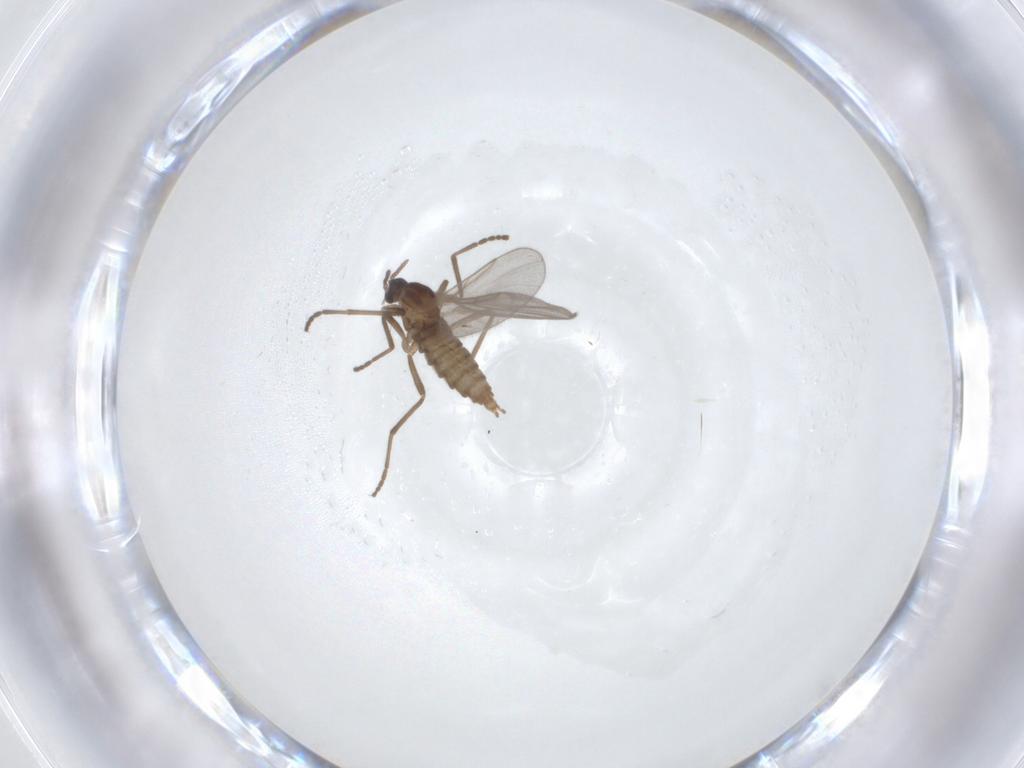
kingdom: Animalia
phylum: Arthropoda
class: Insecta
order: Diptera
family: Cecidomyiidae
